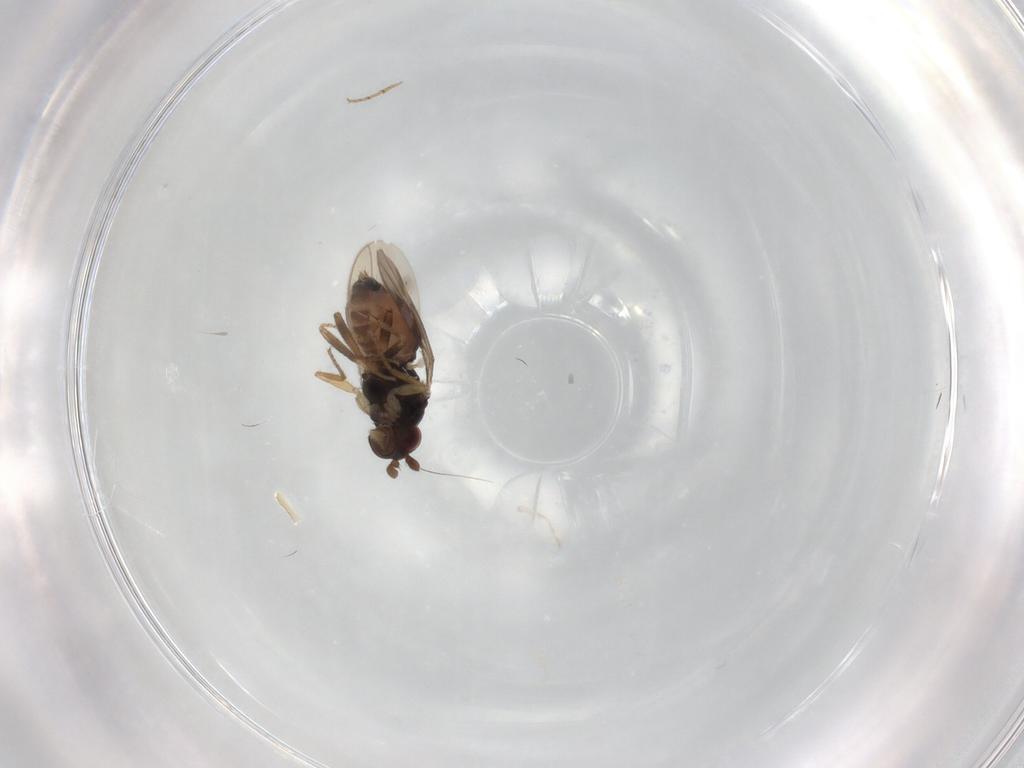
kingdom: Animalia
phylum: Arthropoda
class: Insecta
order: Diptera
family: Sphaeroceridae
